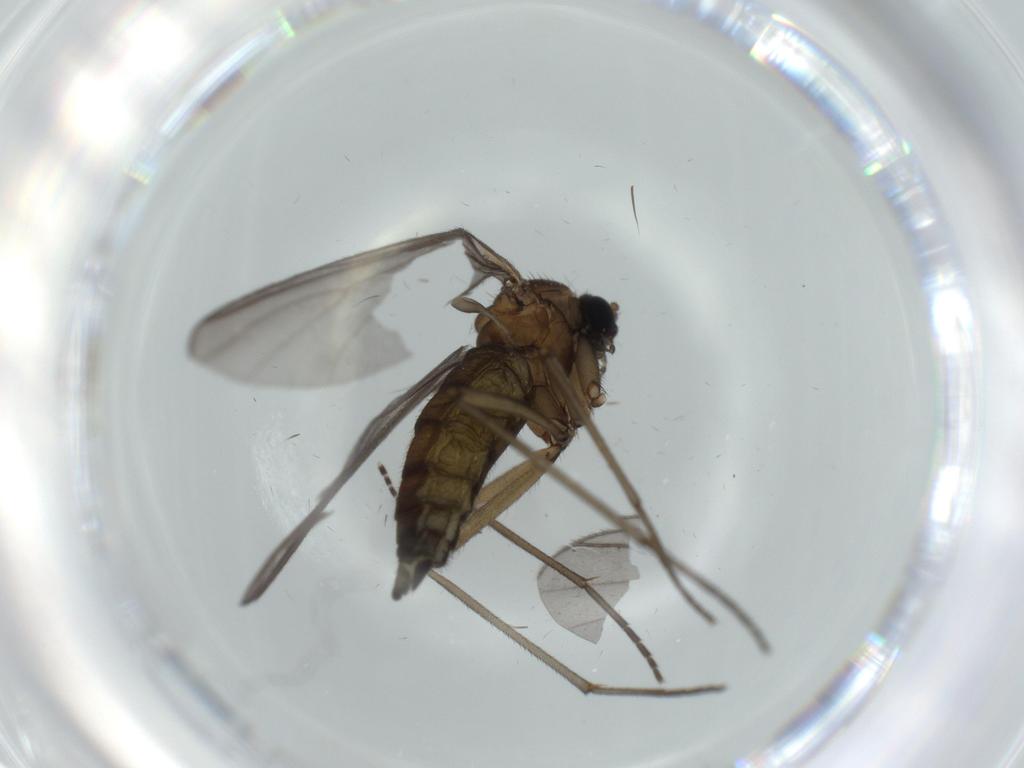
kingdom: Animalia
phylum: Arthropoda
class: Insecta
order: Diptera
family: Sciaridae
